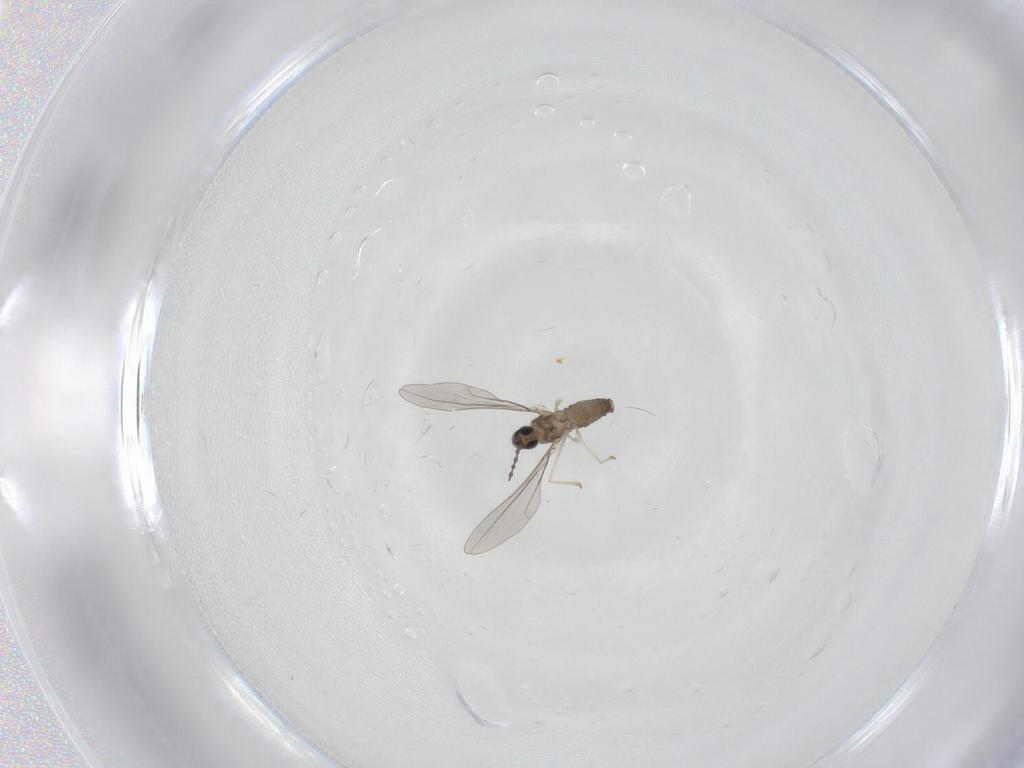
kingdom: Animalia
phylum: Arthropoda
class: Insecta
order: Diptera
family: Cecidomyiidae
